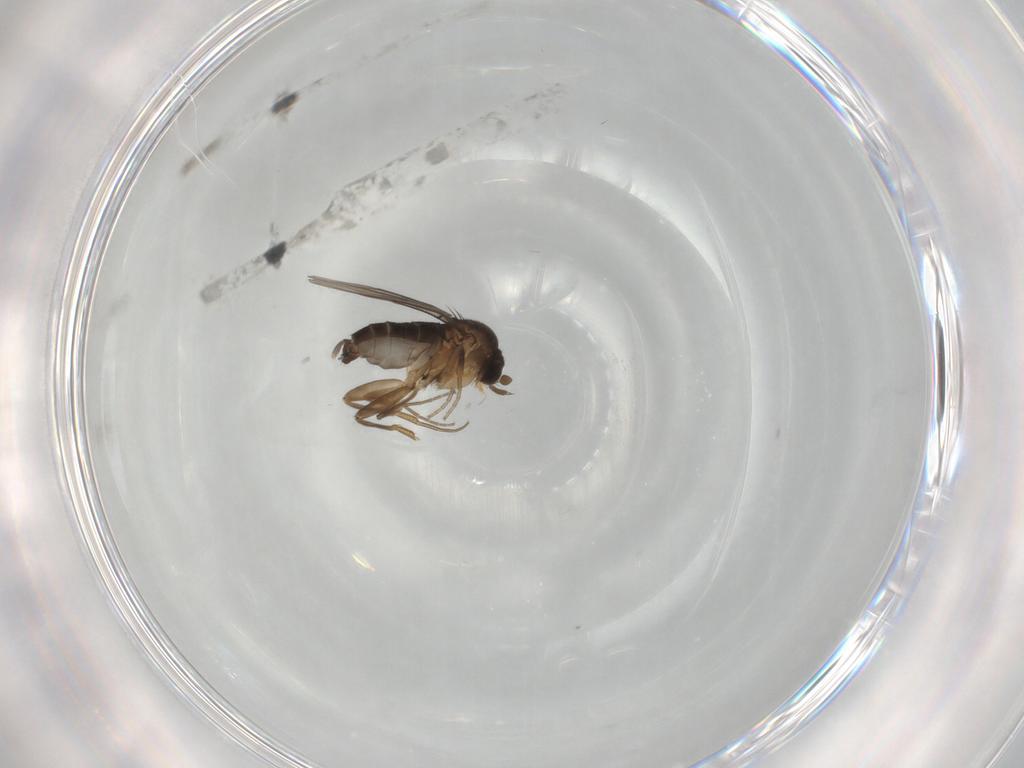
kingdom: Animalia
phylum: Arthropoda
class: Insecta
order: Diptera
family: Phoridae
